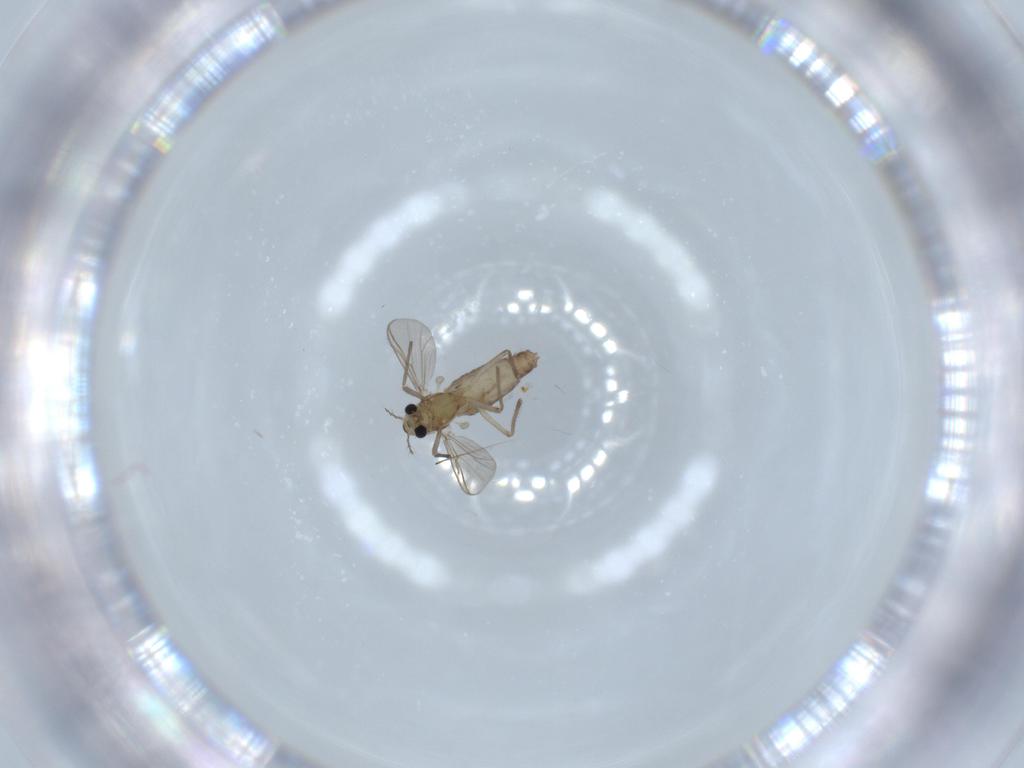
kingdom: Animalia
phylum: Arthropoda
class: Insecta
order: Diptera
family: Chironomidae
